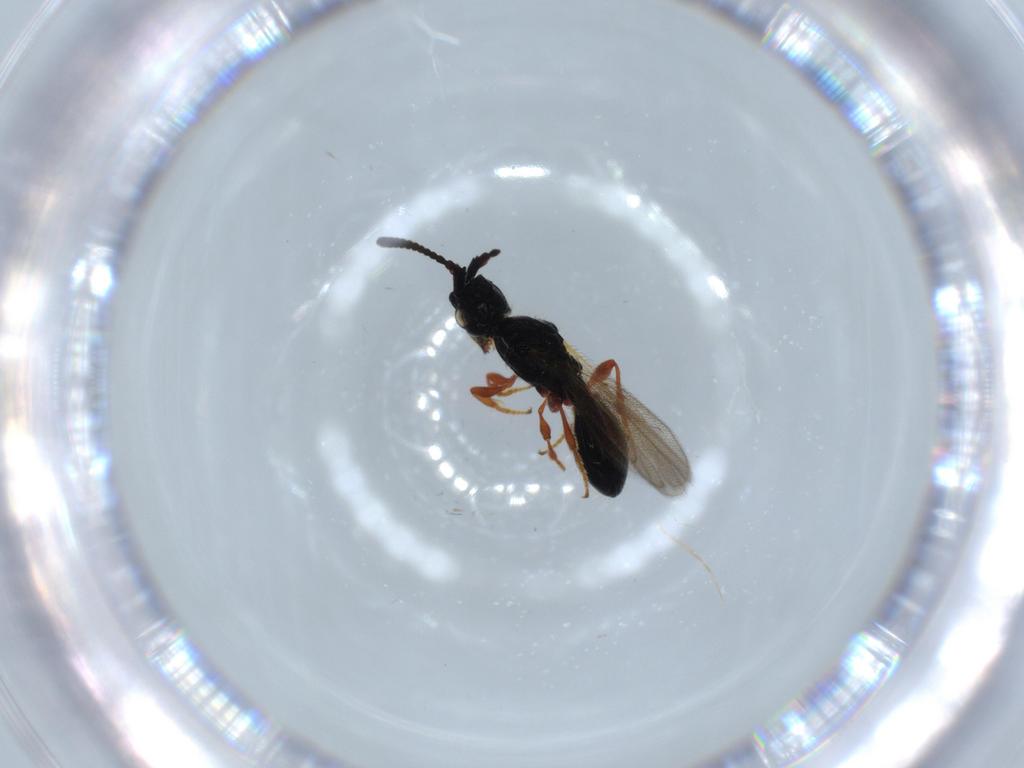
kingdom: Animalia
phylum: Arthropoda
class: Insecta
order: Hymenoptera
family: Diapriidae
